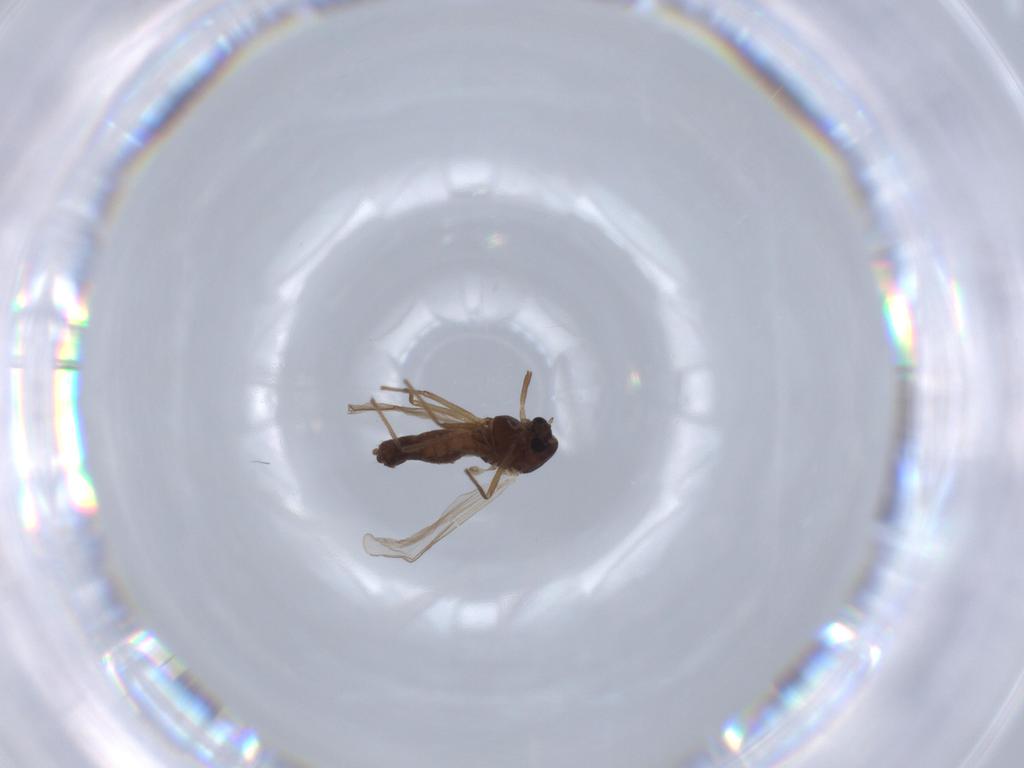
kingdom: Animalia
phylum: Arthropoda
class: Insecta
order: Diptera
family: Chironomidae
